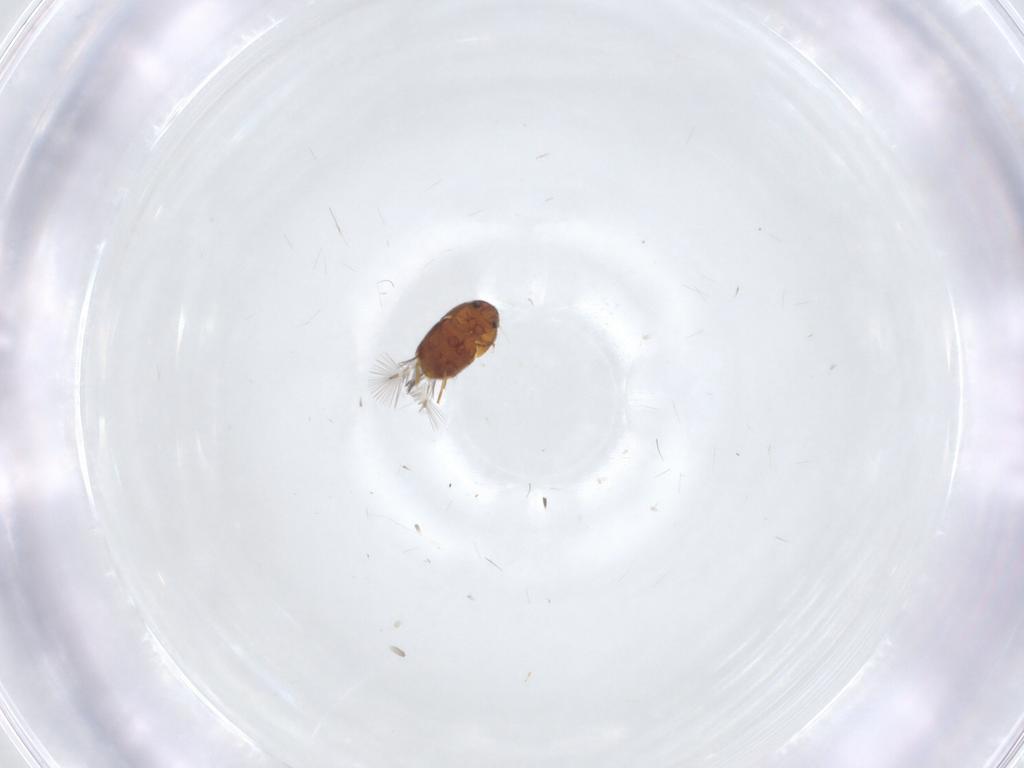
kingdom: Animalia
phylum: Arthropoda
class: Insecta
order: Coleoptera
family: Ptiliidae
